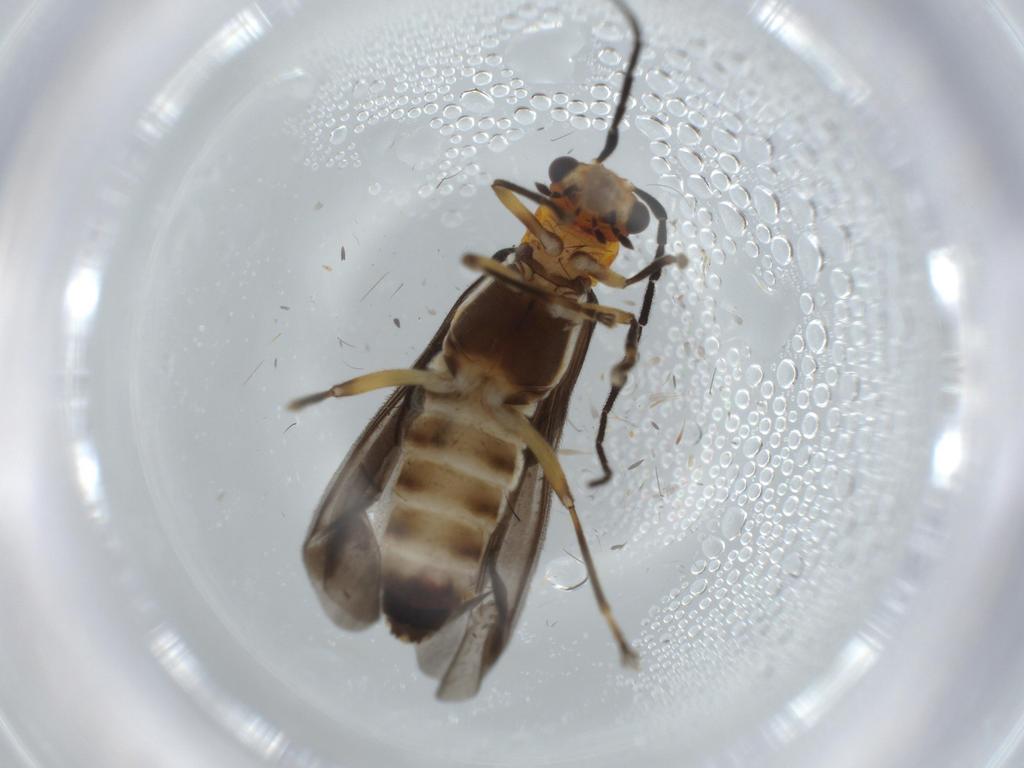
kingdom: Animalia
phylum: Arthropoda
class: Insecta
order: Coleoptera
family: Cantharidae
